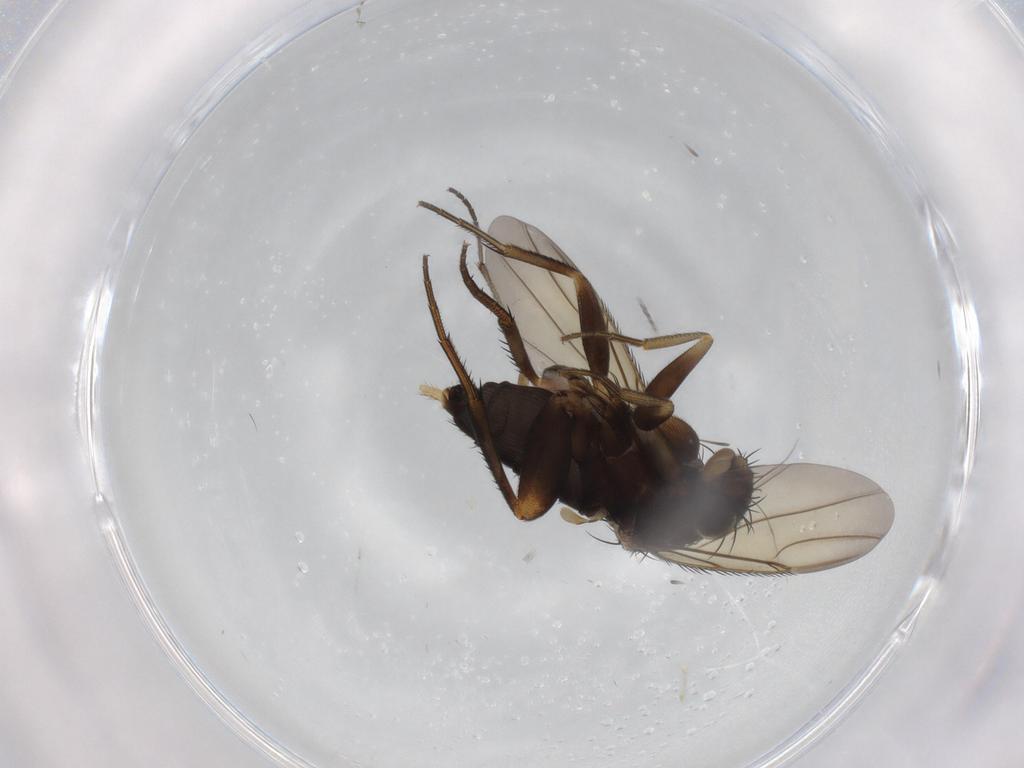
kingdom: Animalia
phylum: Arthropoda
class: Insecta
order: Diptera
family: Phoridae
